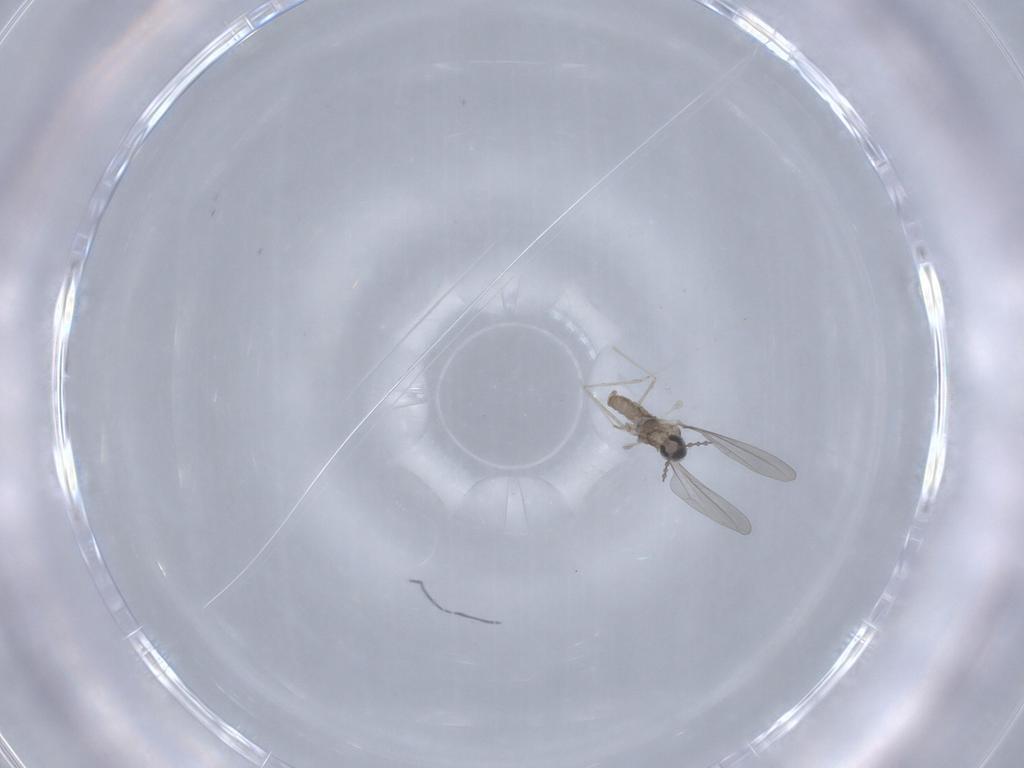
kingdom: Animalia
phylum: Arthropoda
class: Insecta
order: Diptera
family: Cecidomyiidae
